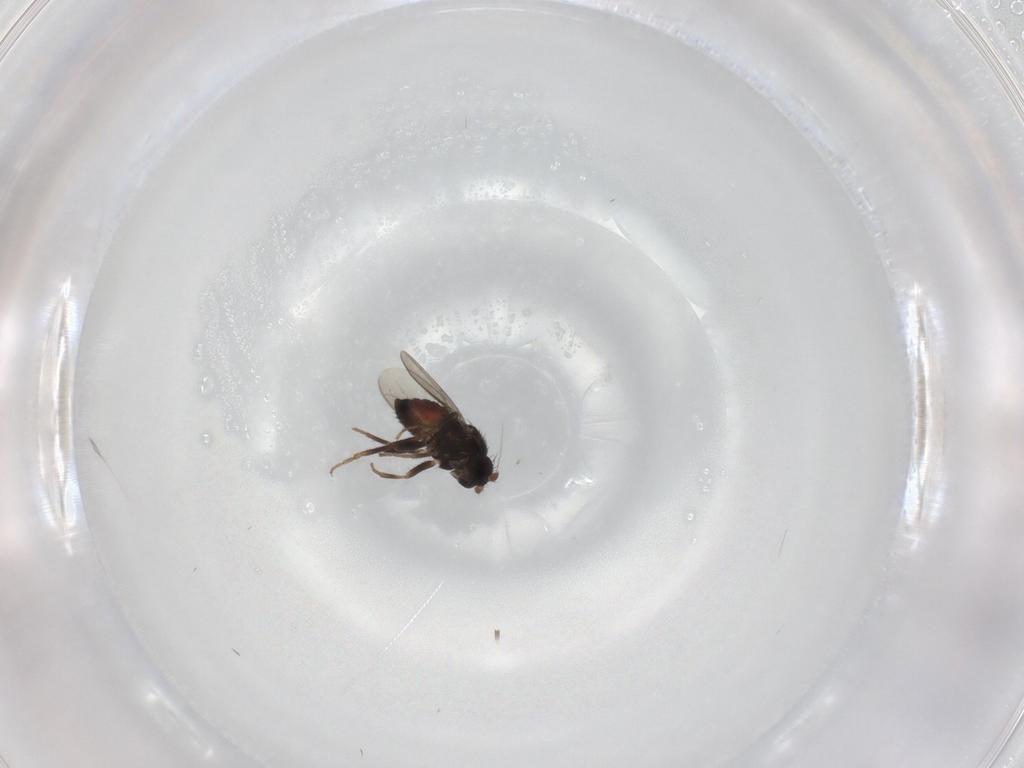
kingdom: Animalia
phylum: Arthropoda
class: Insecta
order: Diptera
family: Sphaeroceridae
